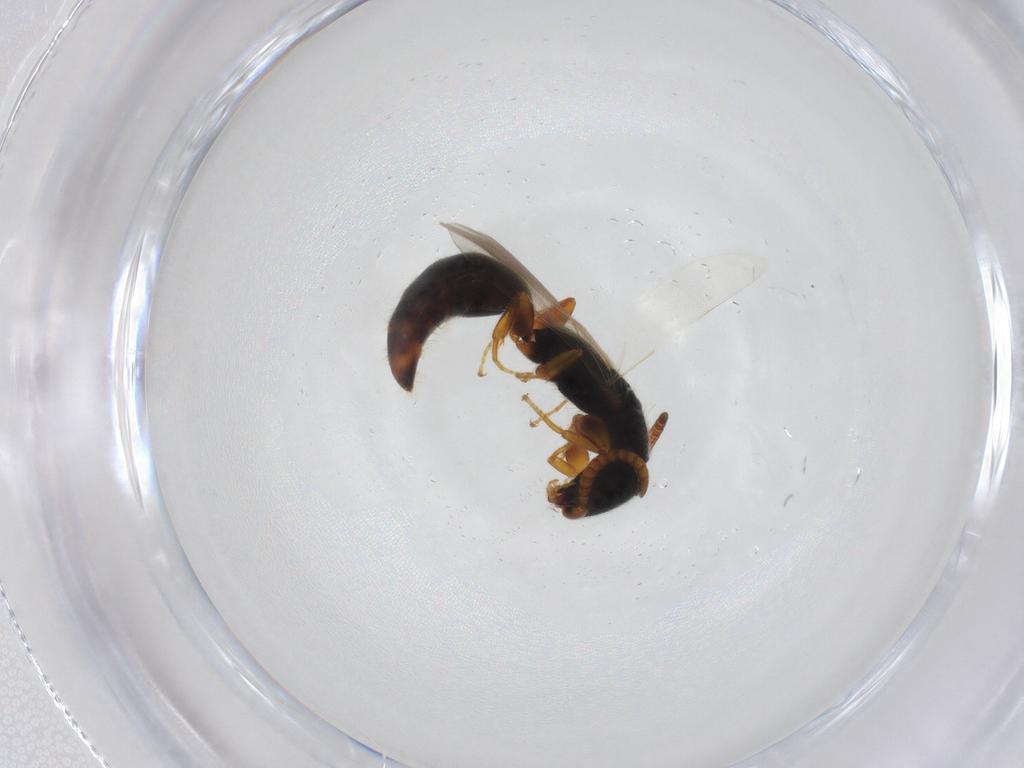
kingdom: Animalia
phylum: Arthropoda
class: Insecta
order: Hymenoptera
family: Bethylidae
